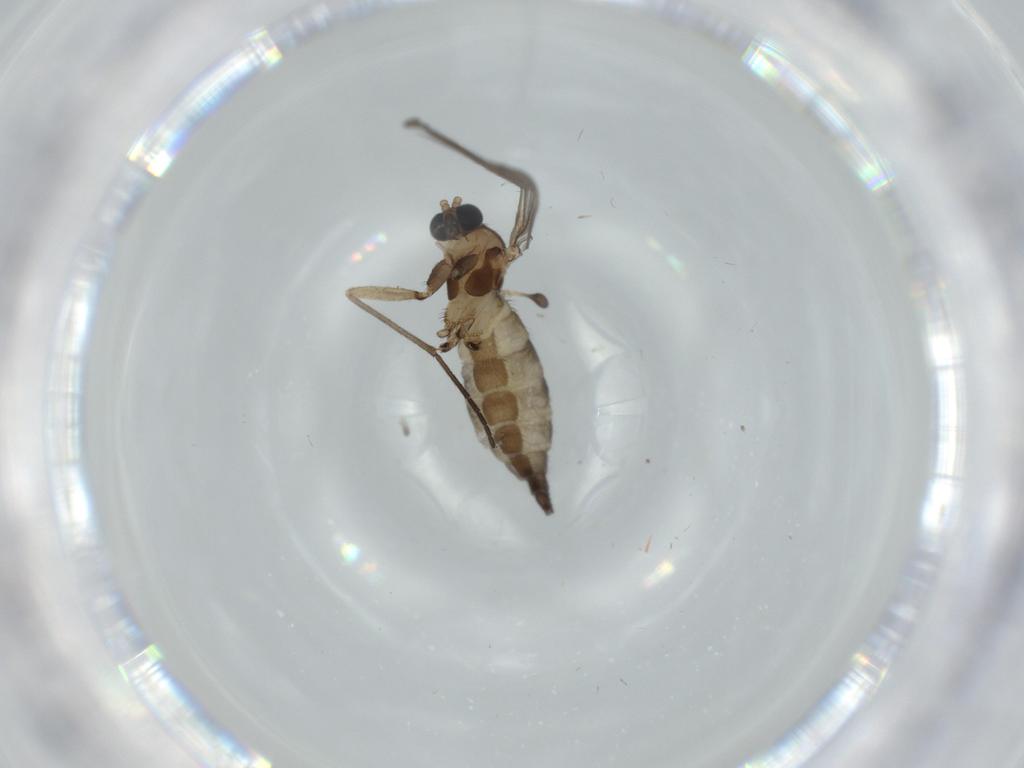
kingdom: Animalia
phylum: Arthropoda
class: Insecta
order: Diptera
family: Sciaridae
